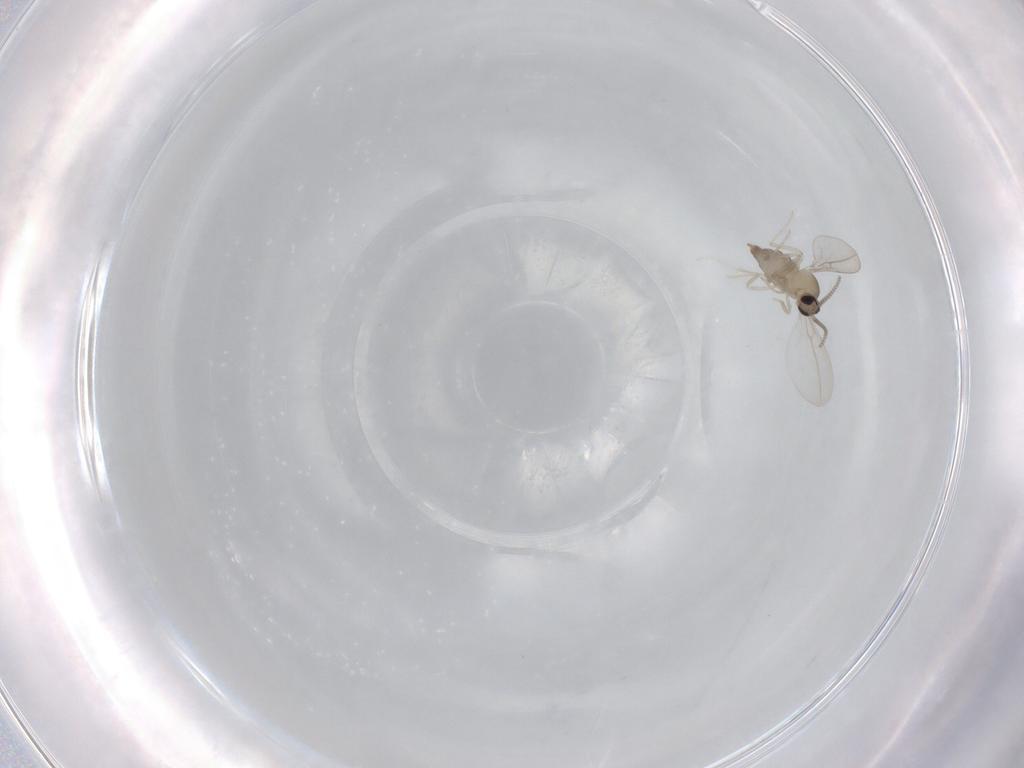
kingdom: Animalia
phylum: Arthropoda
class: Insecta
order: Diptera
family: Cecidomyiidae
